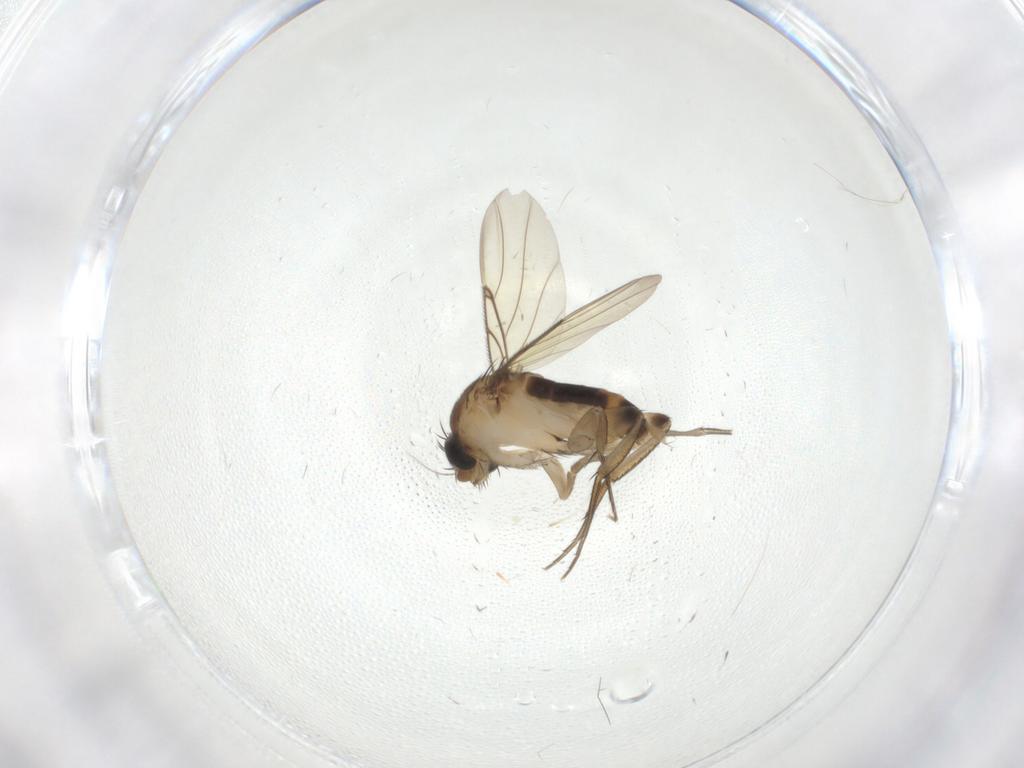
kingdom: Animalia
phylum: Arthropoda
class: Insecta
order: Diptera
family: Phoridae
